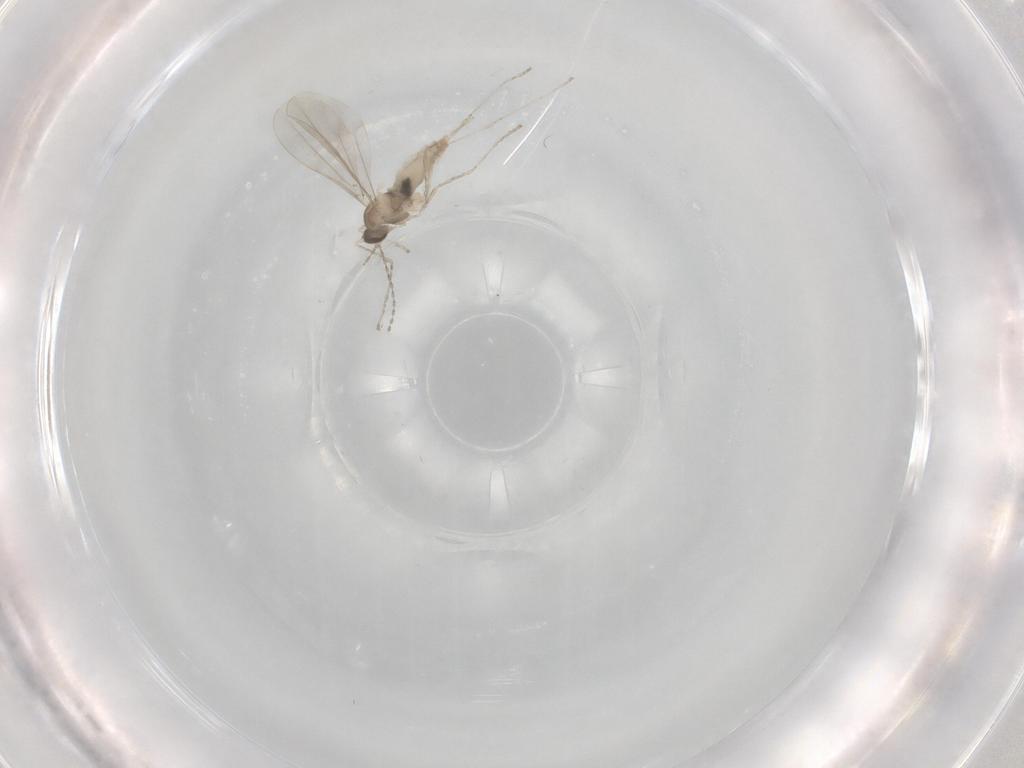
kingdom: Animalia
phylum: Arthropoda
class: Insecta
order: Diptera
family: Cecidomyiidae
